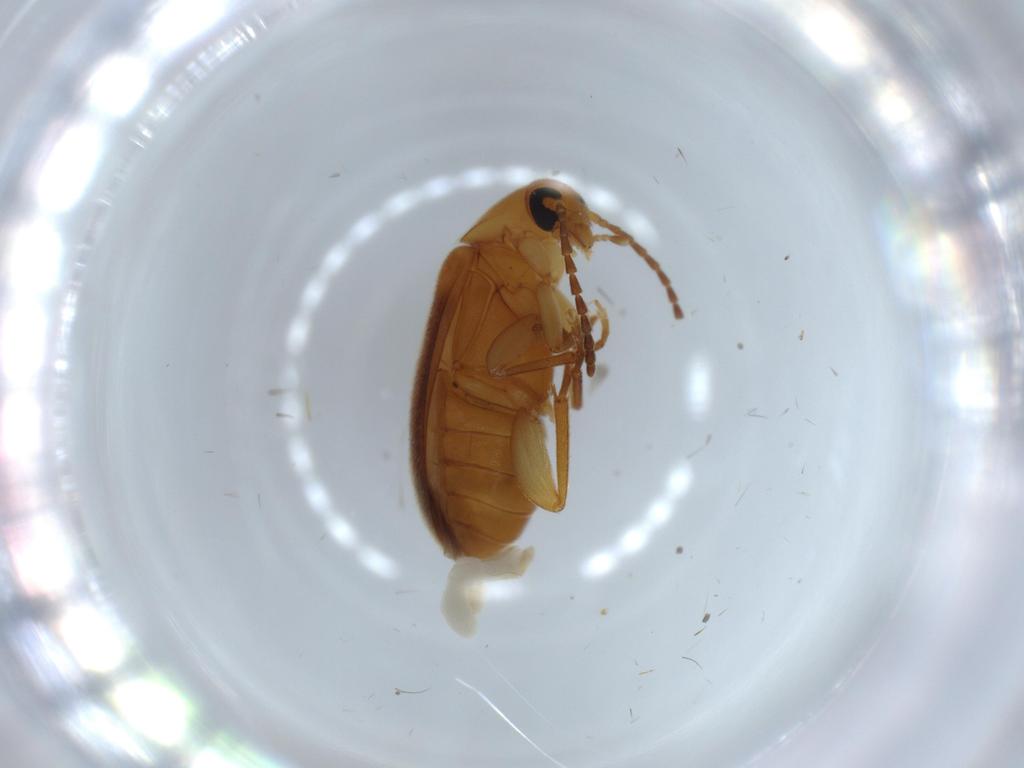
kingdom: Animalia
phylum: Arthropoda
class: Insecta
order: Coleoptera
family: Scraptiidae
